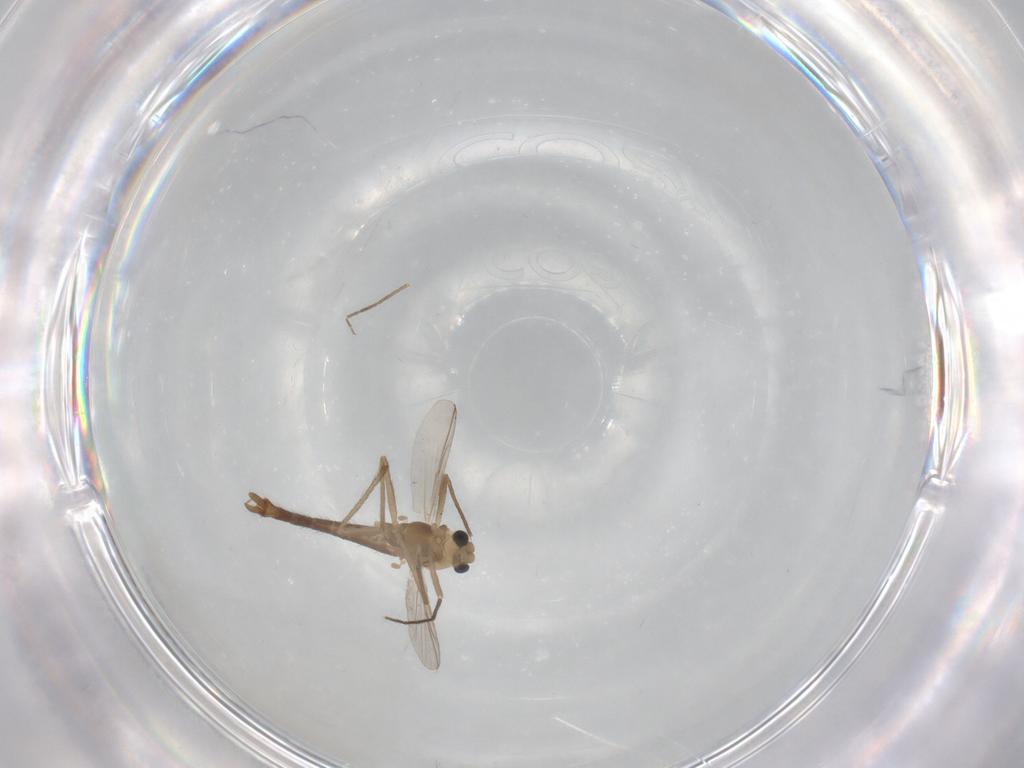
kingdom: Animalia
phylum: Arthropoda
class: Insecta
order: Diptera
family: Chironomidae
